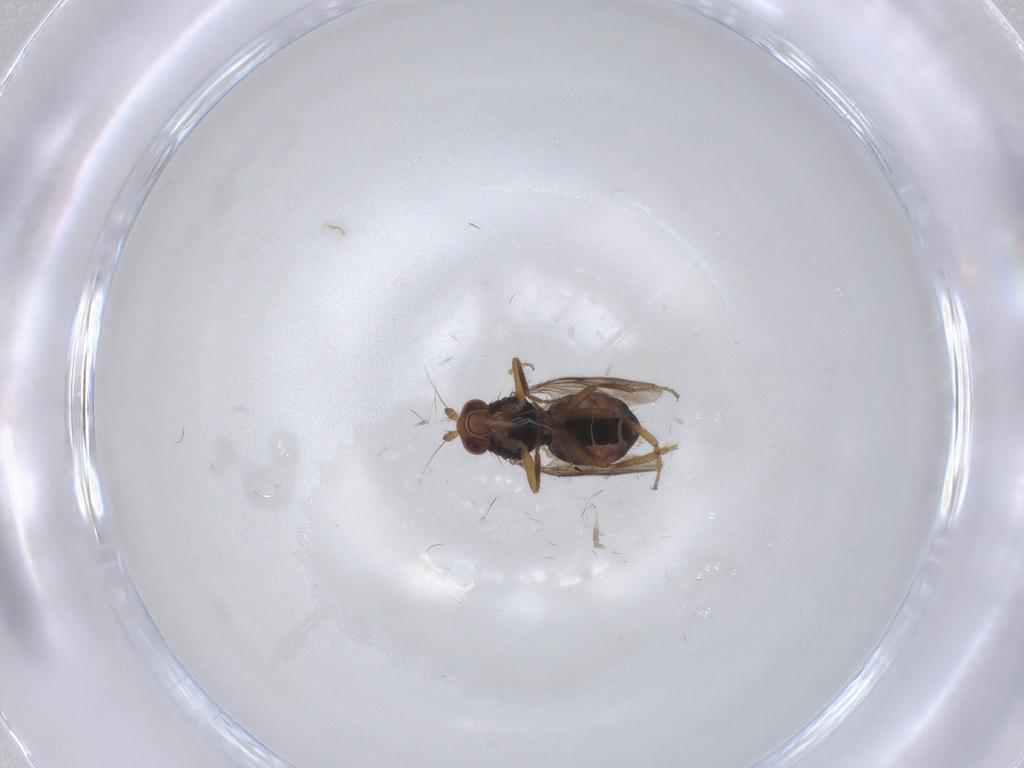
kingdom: Animalia
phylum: Arthropoda
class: Insecta
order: Diptera
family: Sphaeroceridae
